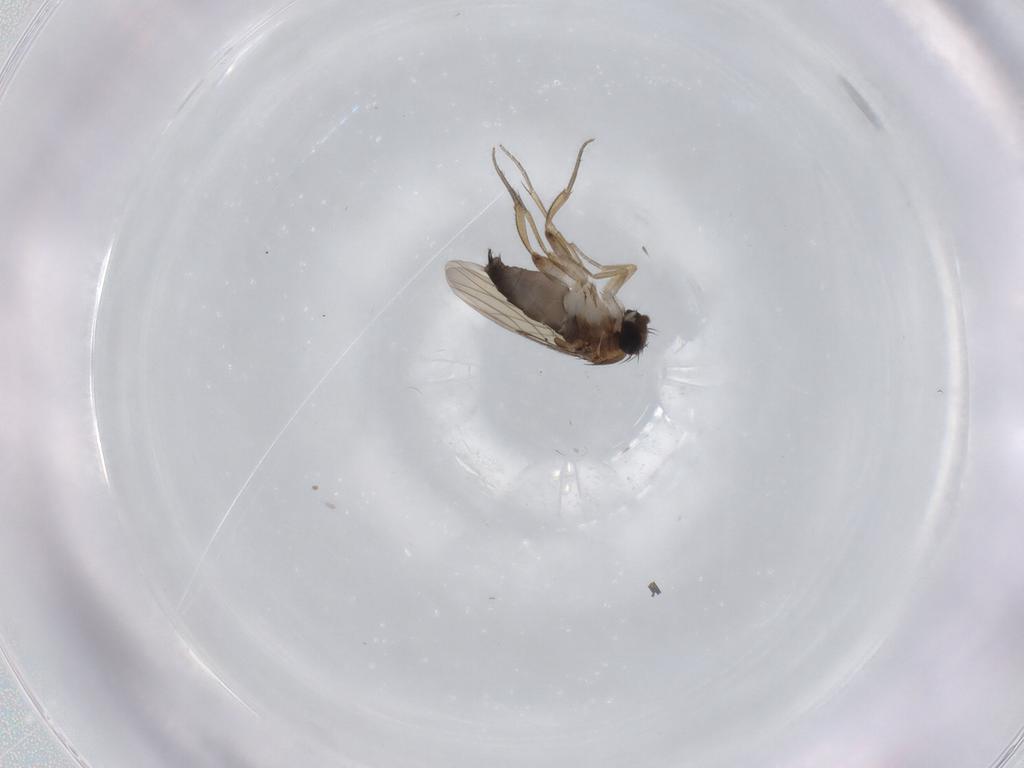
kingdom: Animalia
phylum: Arthropoda
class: Insecta
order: Diptera
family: Phoridae
